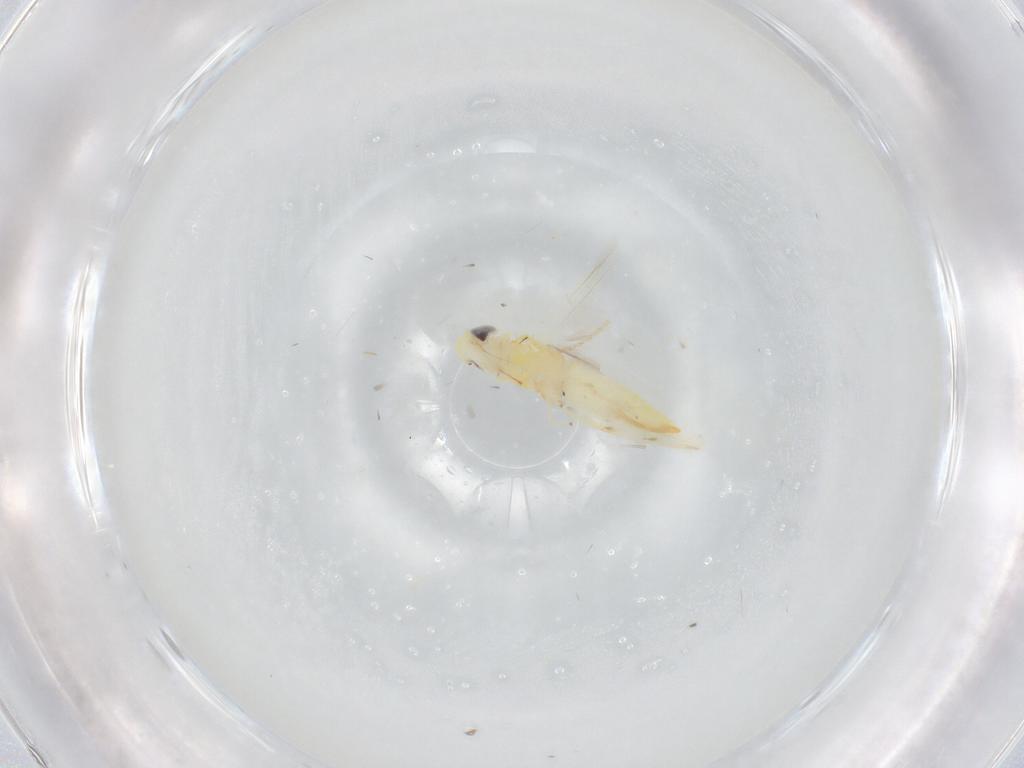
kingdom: Animalia
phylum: Arthropoda
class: Insecta
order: Hemiptera
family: Cicadellidae
